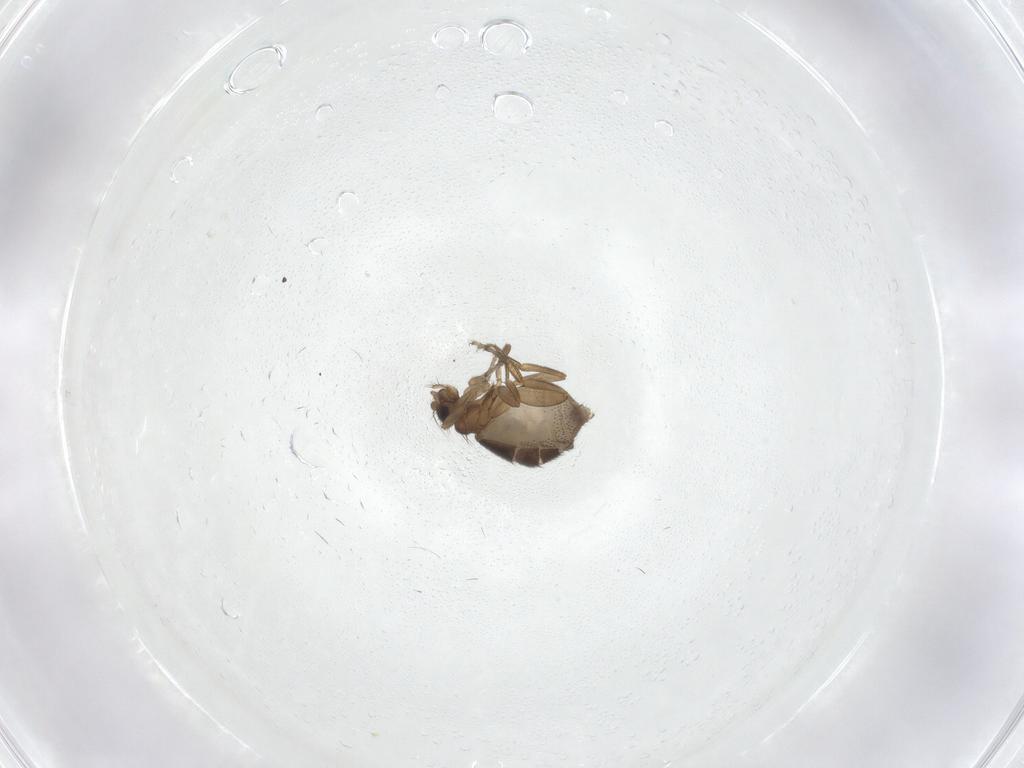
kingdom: Animalia
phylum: Arthropoda
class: Insecta
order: Diptera
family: Phoridae
